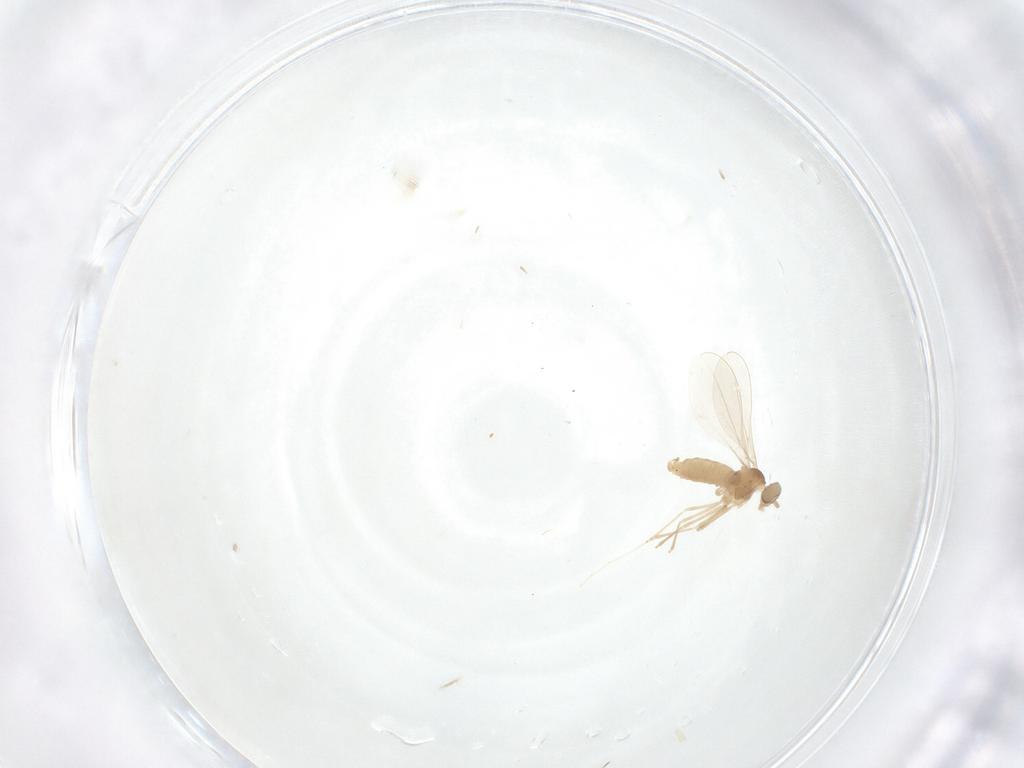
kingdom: Animalia
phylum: Arthropoda
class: Insecta
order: Diptera
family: Cecidomyiidae
